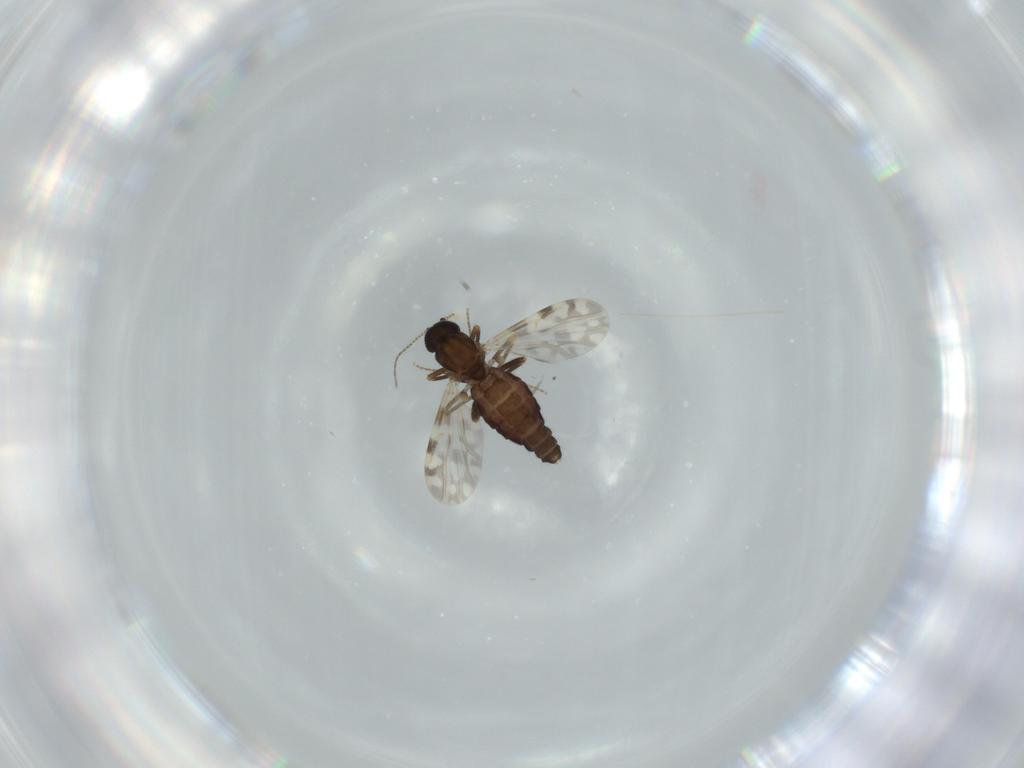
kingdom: Animalia
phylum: Arthropoda
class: Insecta
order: Diptera
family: Ceratopogonidae
